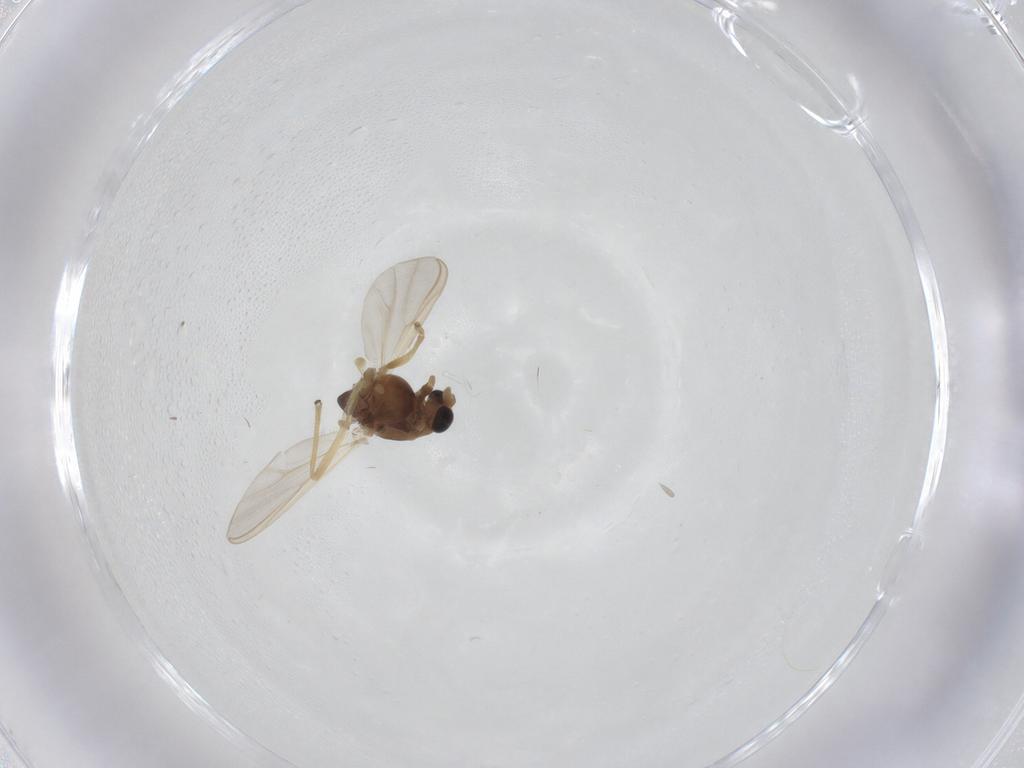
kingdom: Animalia
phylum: Arthropoda
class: Insecta
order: Diptera
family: Chironomidae
